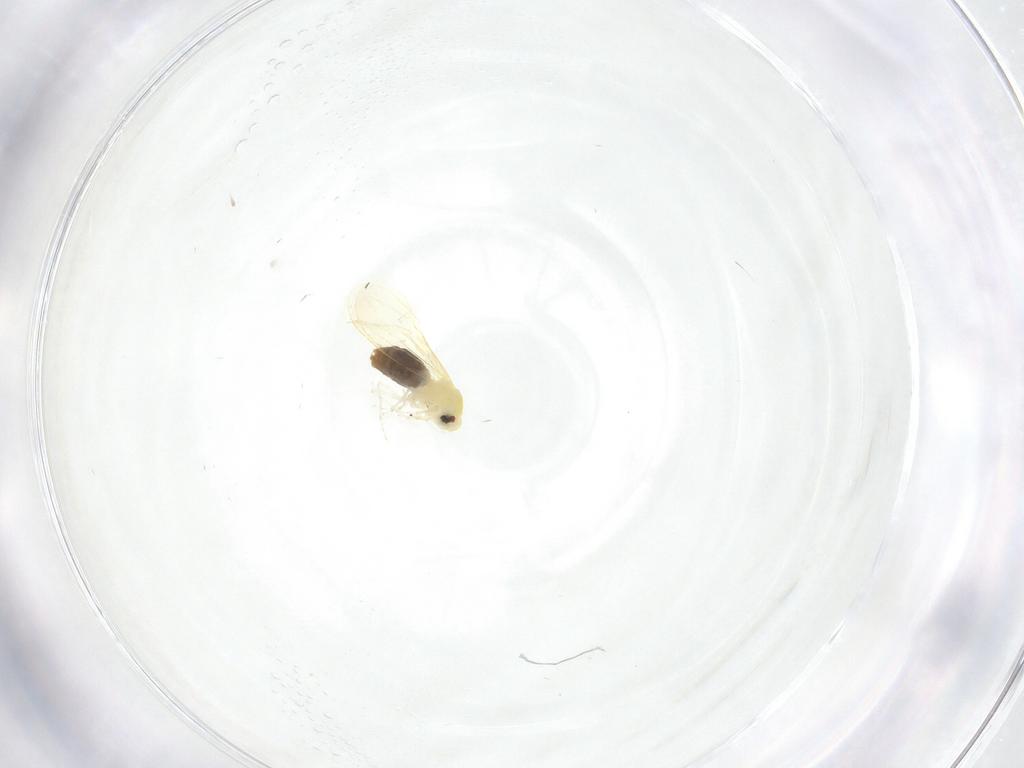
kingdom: Animalia
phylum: Arthropoda
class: Insecta
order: Hemiptera
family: Aleyrodidae
